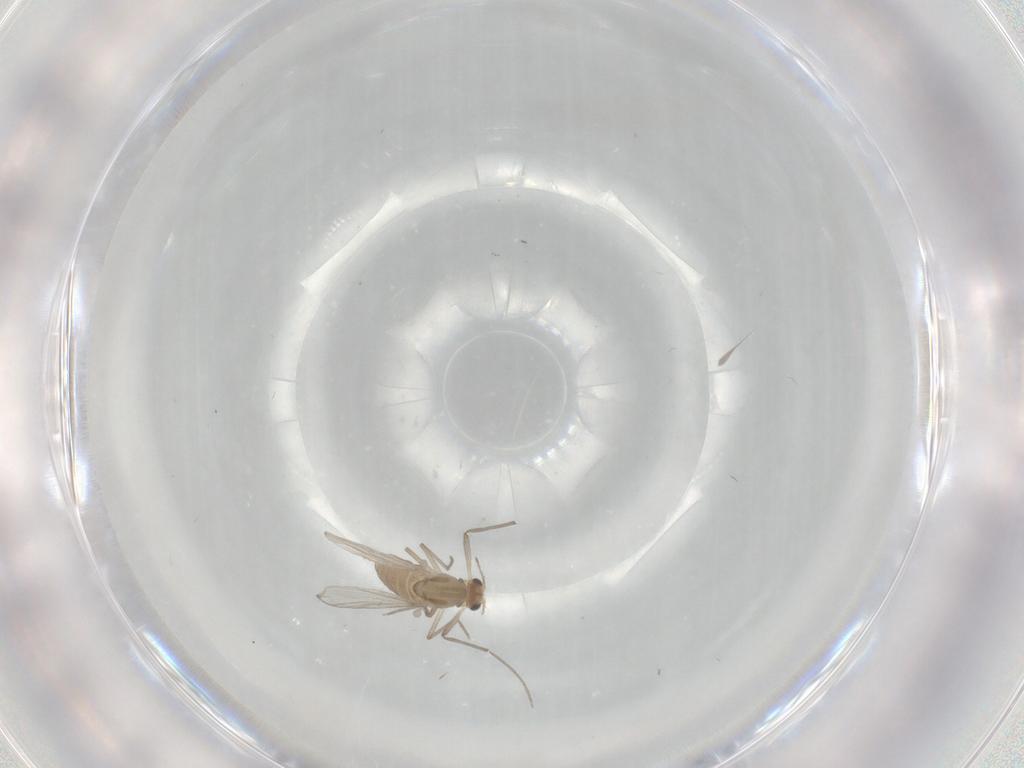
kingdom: Animalia
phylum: Arthropoda
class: Insecta
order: Diptera
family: Chironomidae
